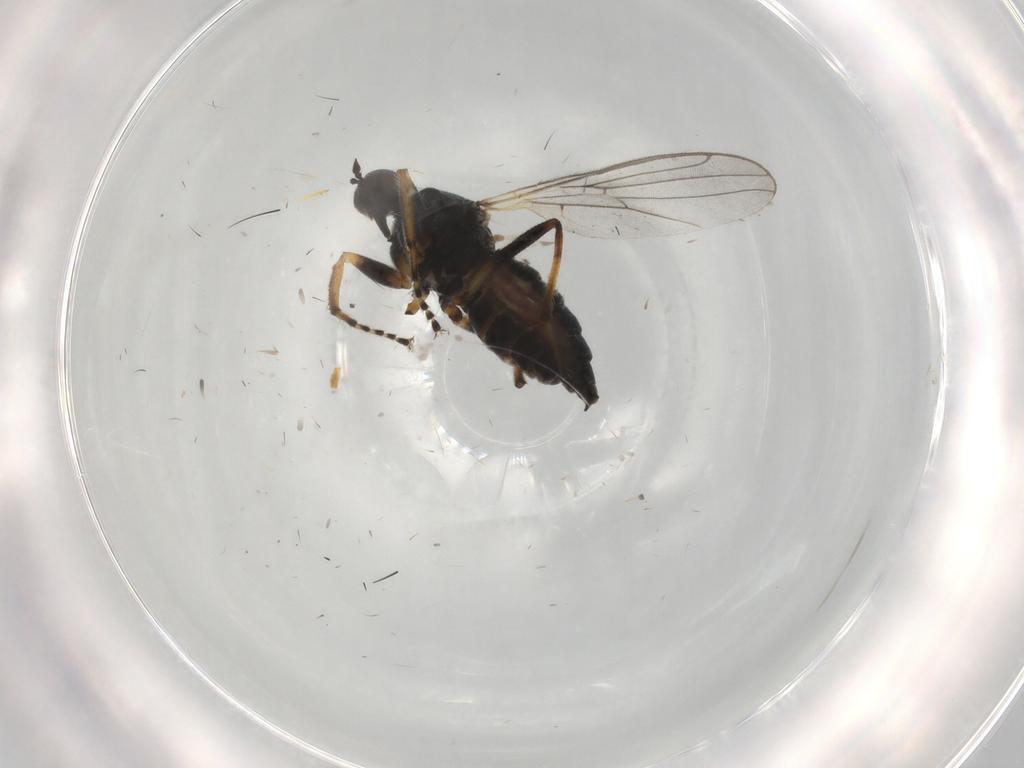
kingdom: Animalia
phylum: Arthropoda
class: Insecta
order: Diptera
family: Hybotidae
